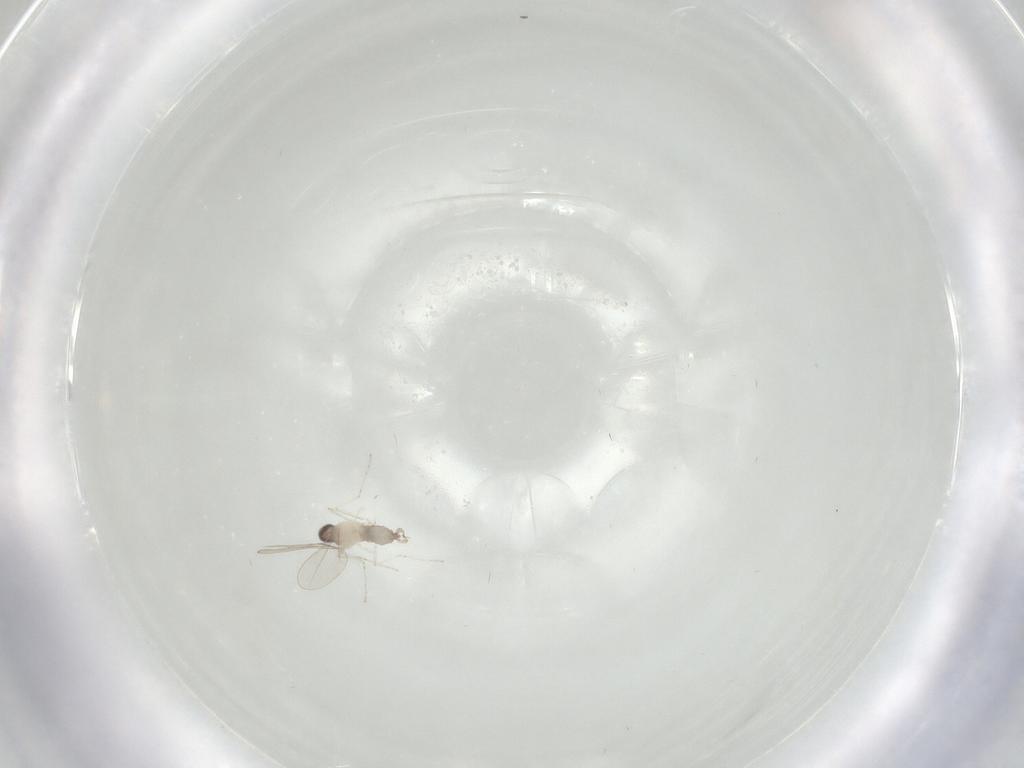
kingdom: Animalia
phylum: Arthropoda
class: Insecta
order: Diptera
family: Cecidomyiidae
